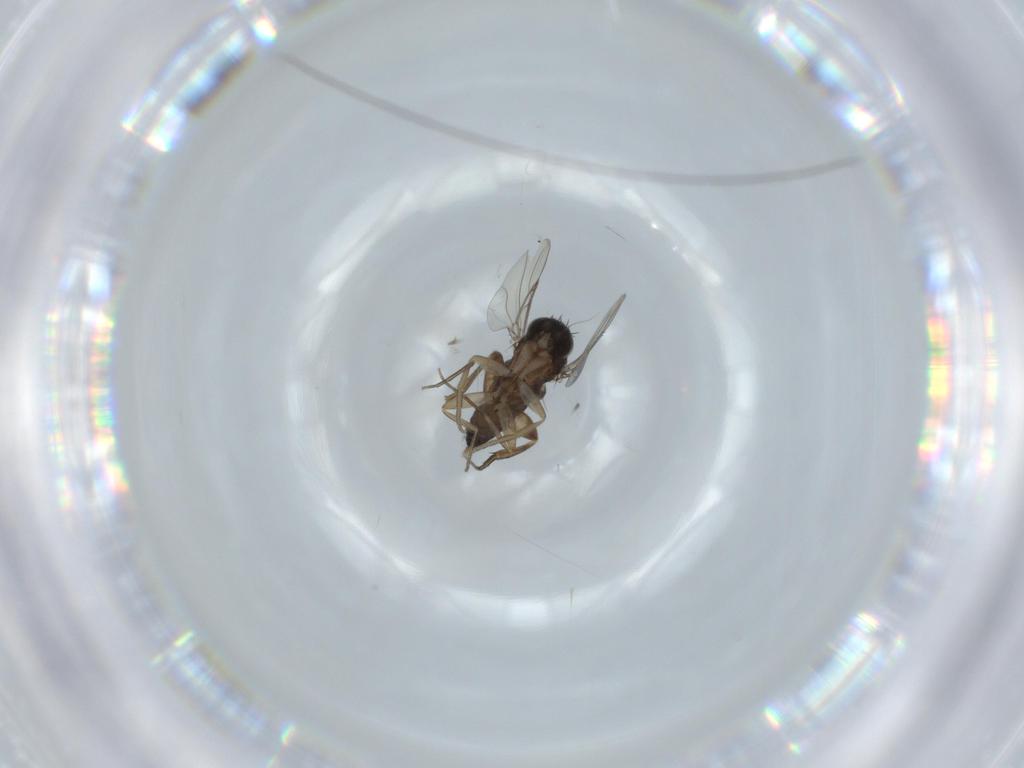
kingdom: Animalia
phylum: Arthropoda
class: Insecta
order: Diptera
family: Phoridae
